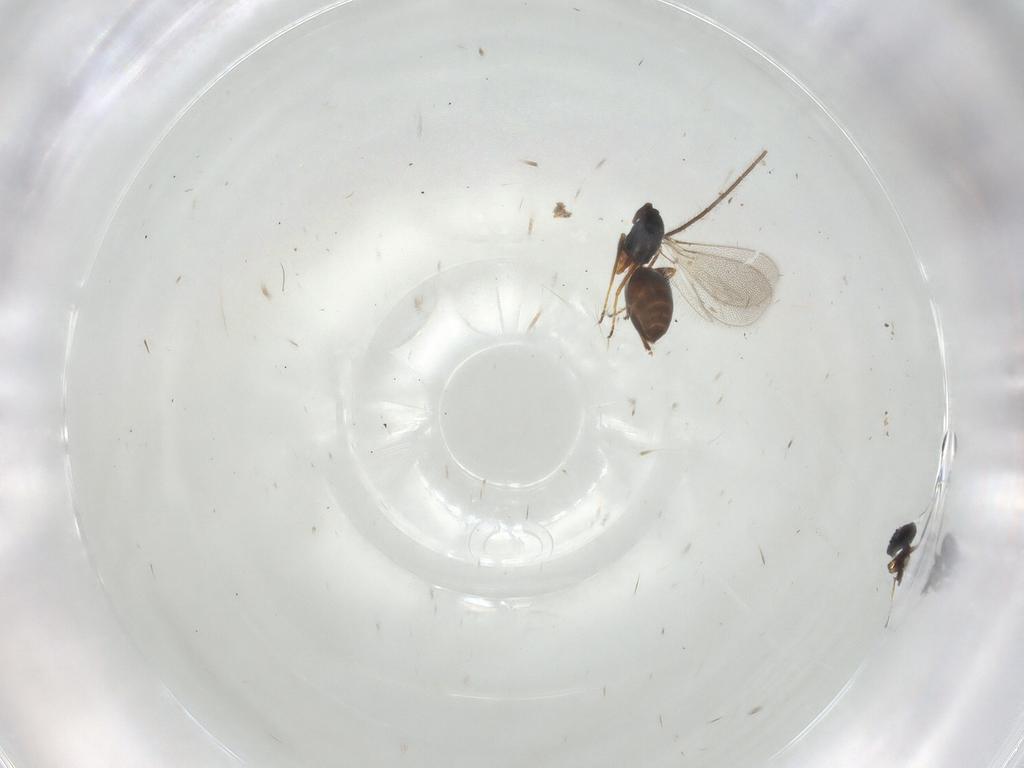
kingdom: Animalia
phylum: Arthropoda
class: Insecta
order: Hymenoptera
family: Mymaridae
